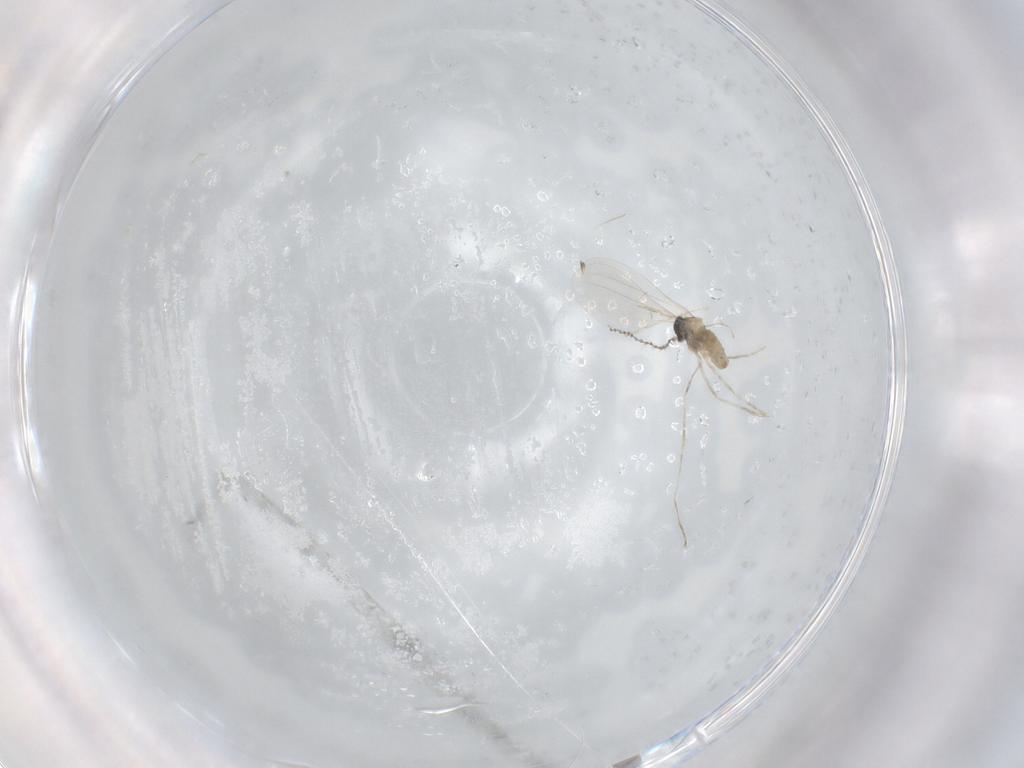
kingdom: Animalia
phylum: Arthropoda
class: Insecta
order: Diptera
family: Cecidomyiidae
